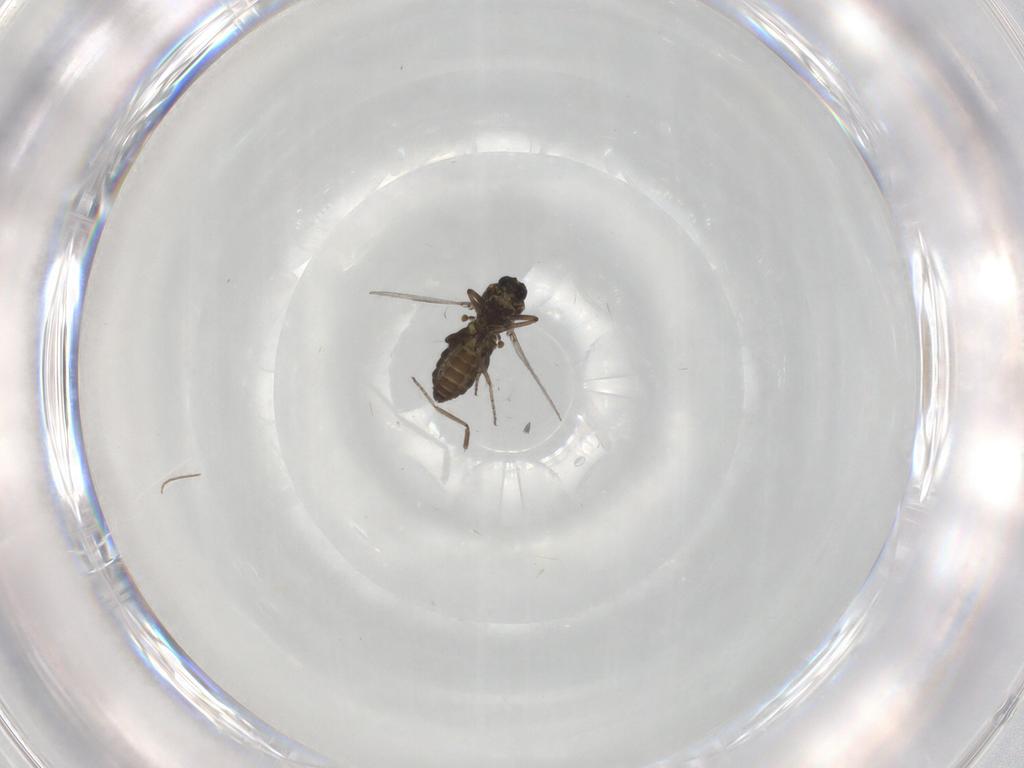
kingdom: Animalia
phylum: Arthropoda
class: Insecta
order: Diptera
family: Ceratopogonidae
